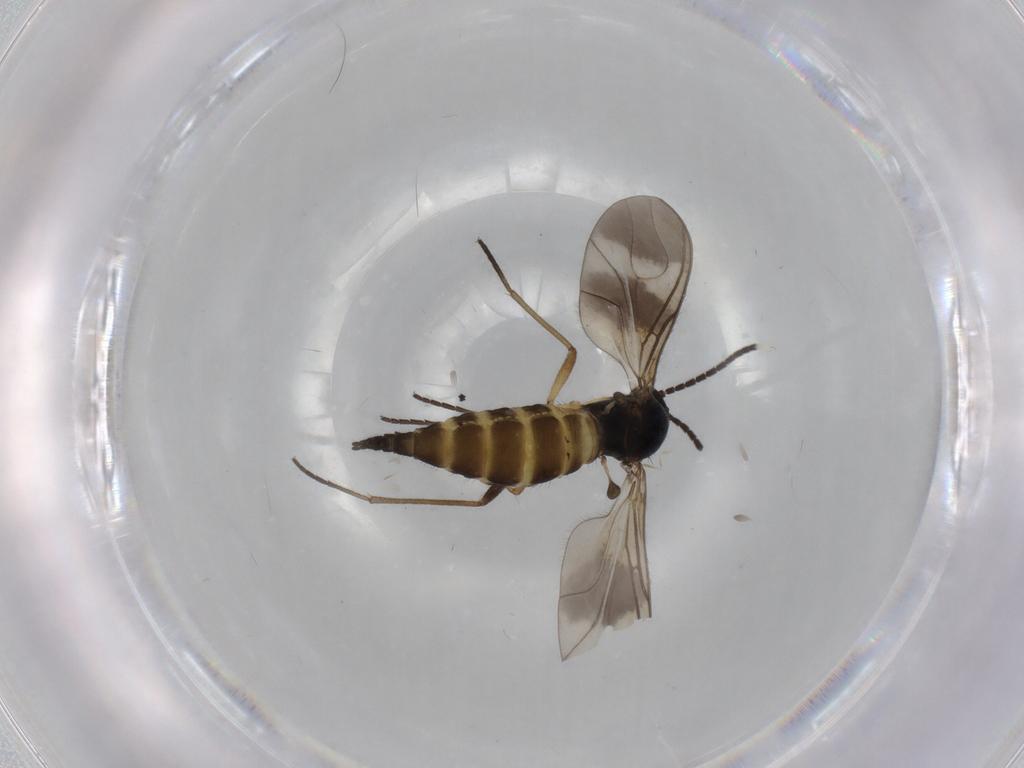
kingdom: Animalia
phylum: Arthropoda
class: Insecta
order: Diptera
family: Sciaridae
